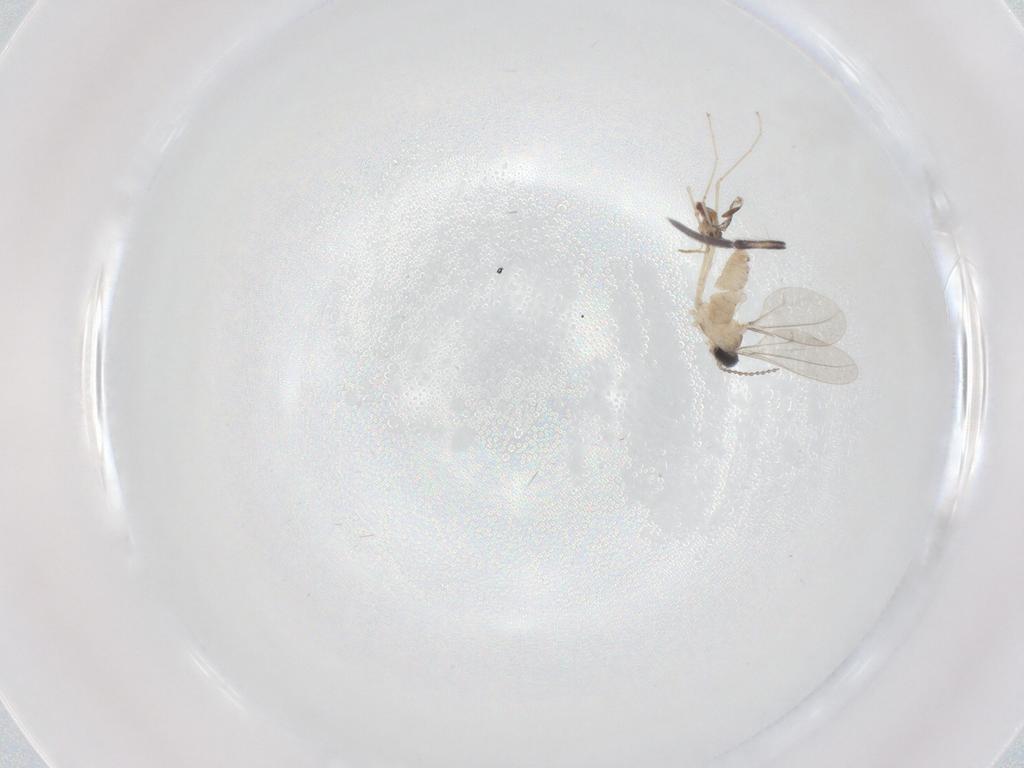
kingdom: Animalia
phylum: Arthropoda
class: Insecta
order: Diptera
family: Cecidomyiidae
